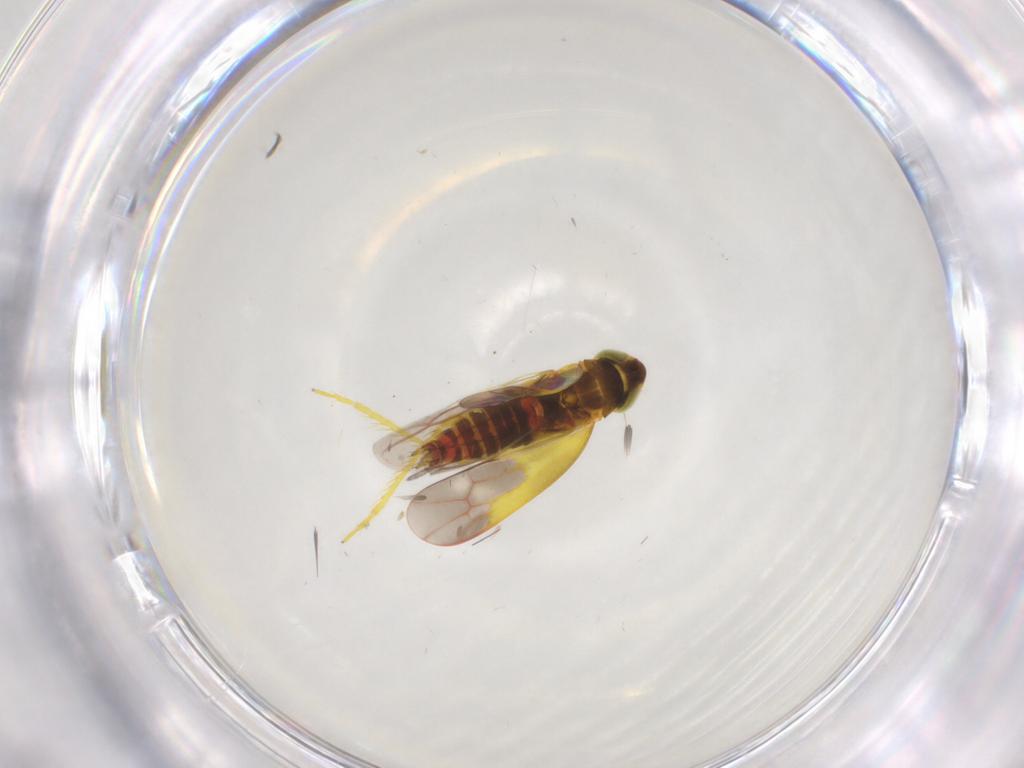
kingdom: Animalia
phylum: Arthropoda
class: Insecta
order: Hemiptera
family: Cicadellidae
